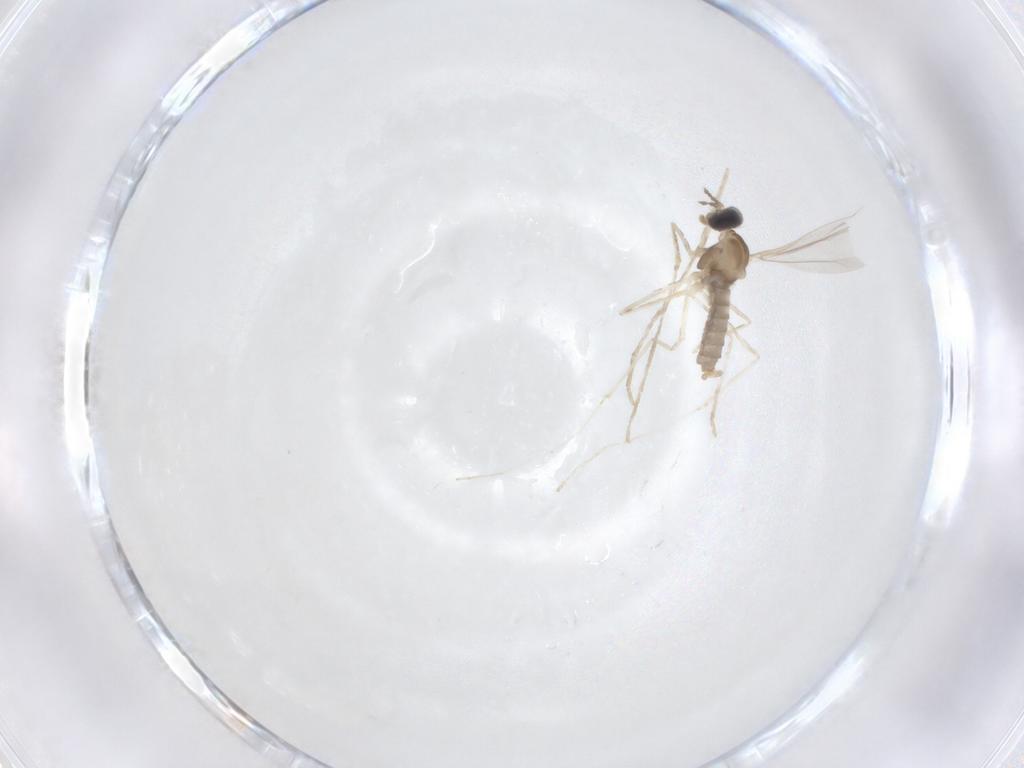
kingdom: Animalia
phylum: Arthropoda
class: Insecta
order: Diptera
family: Cecidomyiidae
